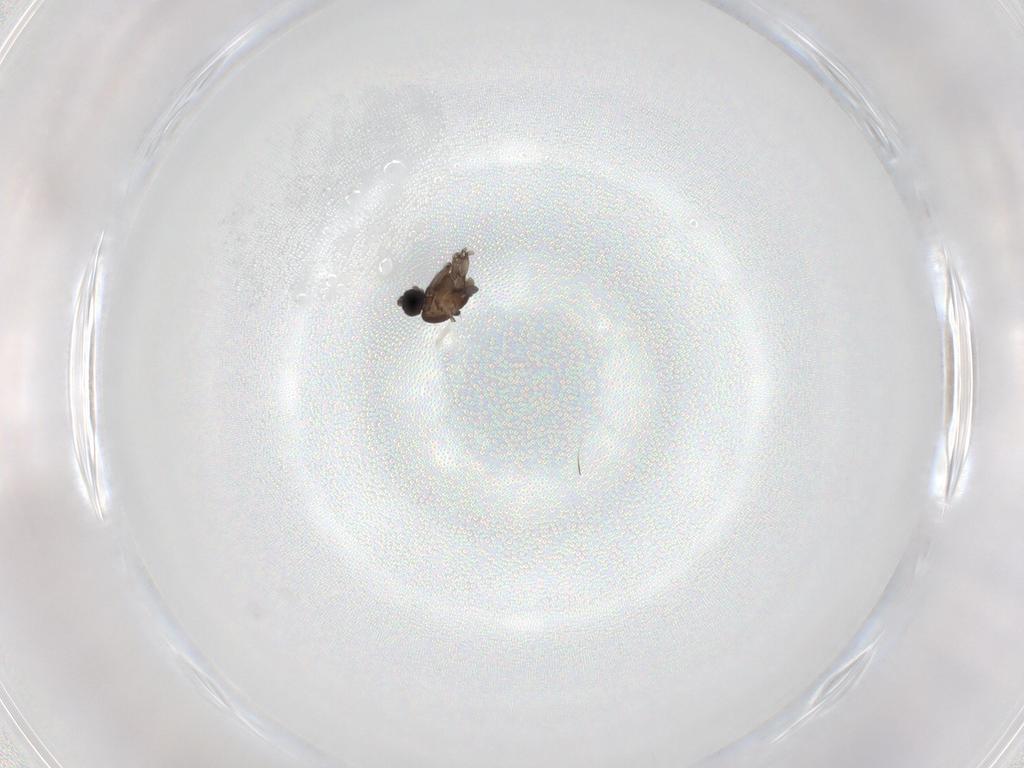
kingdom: Animalia
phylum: Arthropoda
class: Insecta
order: Diptera
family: Sciaridae
